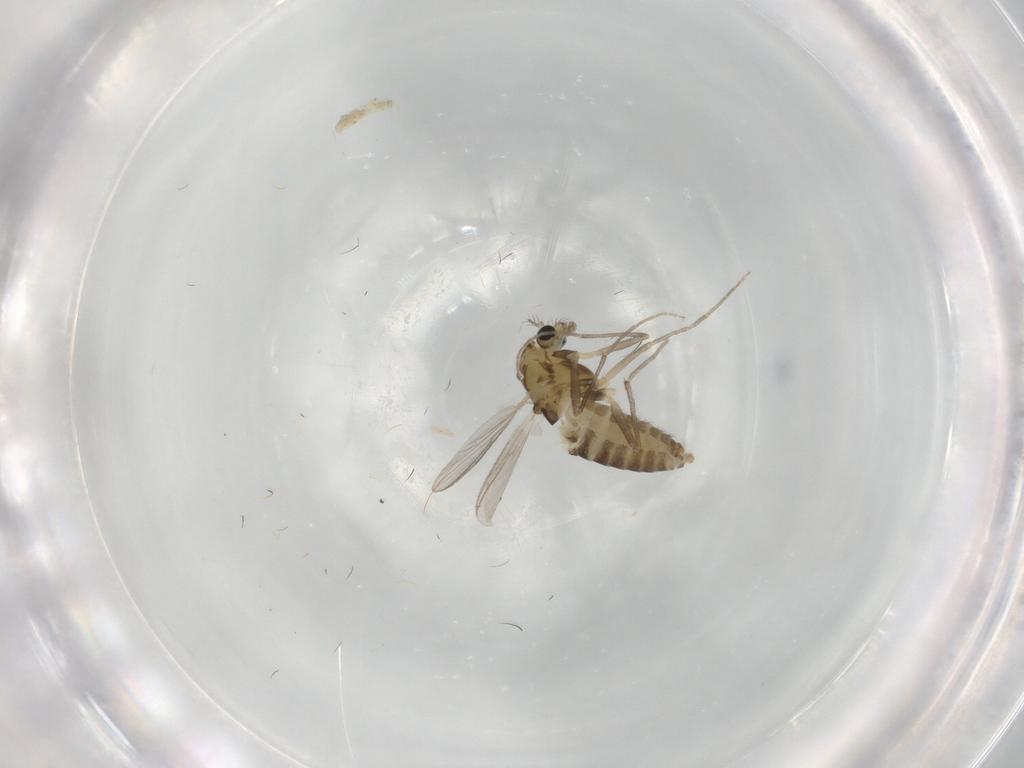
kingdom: Animalia
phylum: Arthropoda
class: Insecta
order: Diptera
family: Chironomidae
